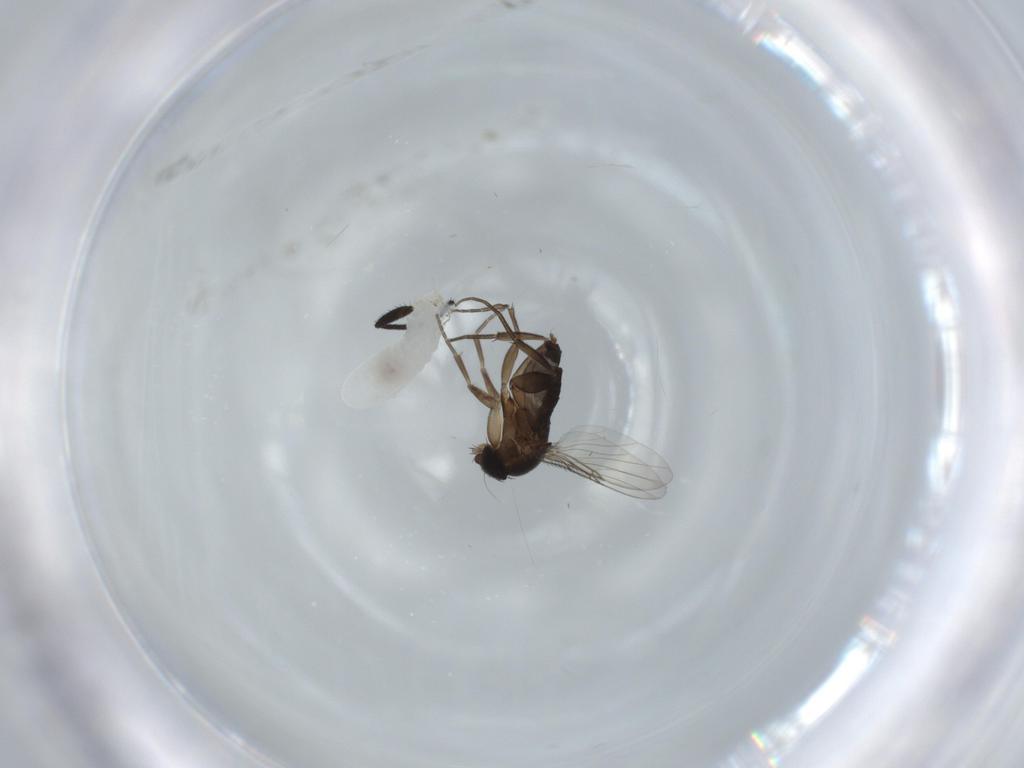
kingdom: Animalia
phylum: Arthropoda
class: Insecta
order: Diptera
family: Phoridae
